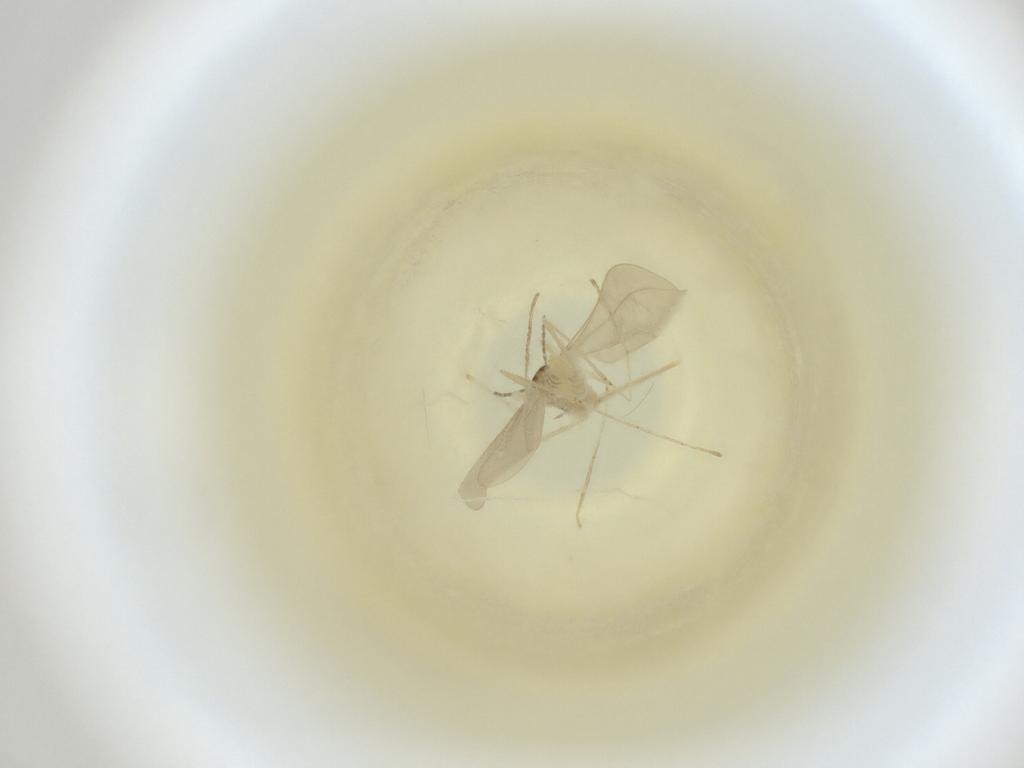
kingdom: Animalia
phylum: Arthropoda
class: Insecta
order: Diptera
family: Cecidomyiidae
